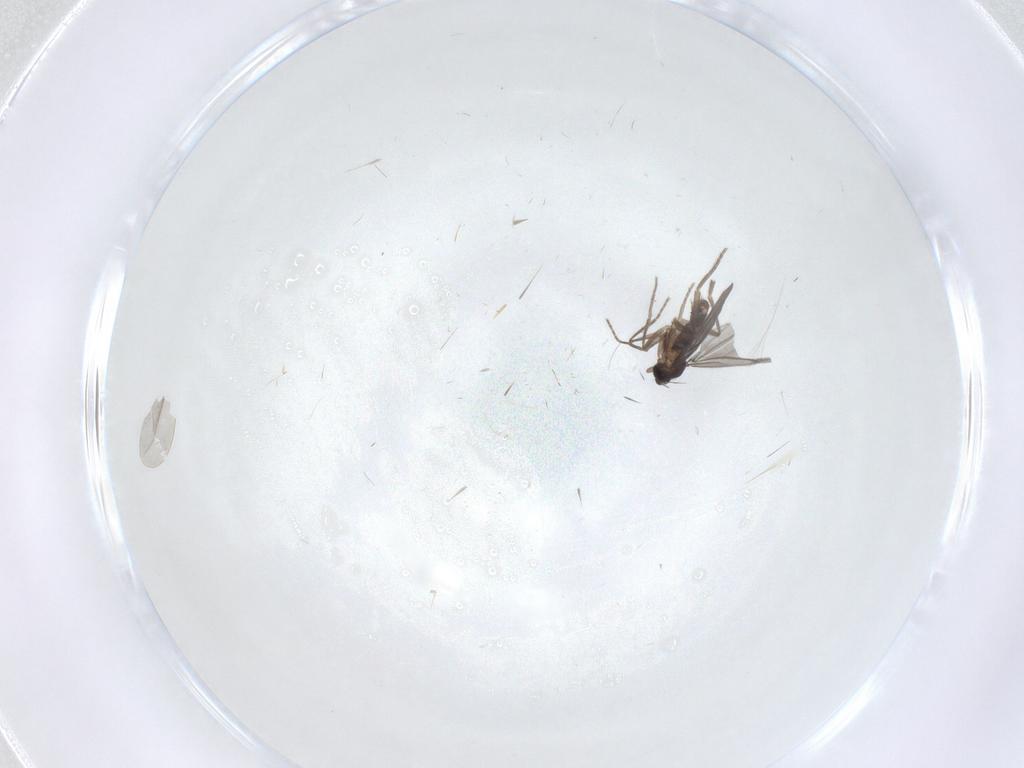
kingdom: Animalia
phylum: Arthropoda
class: Insecta
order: Diptera
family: Cecidomyiidae
